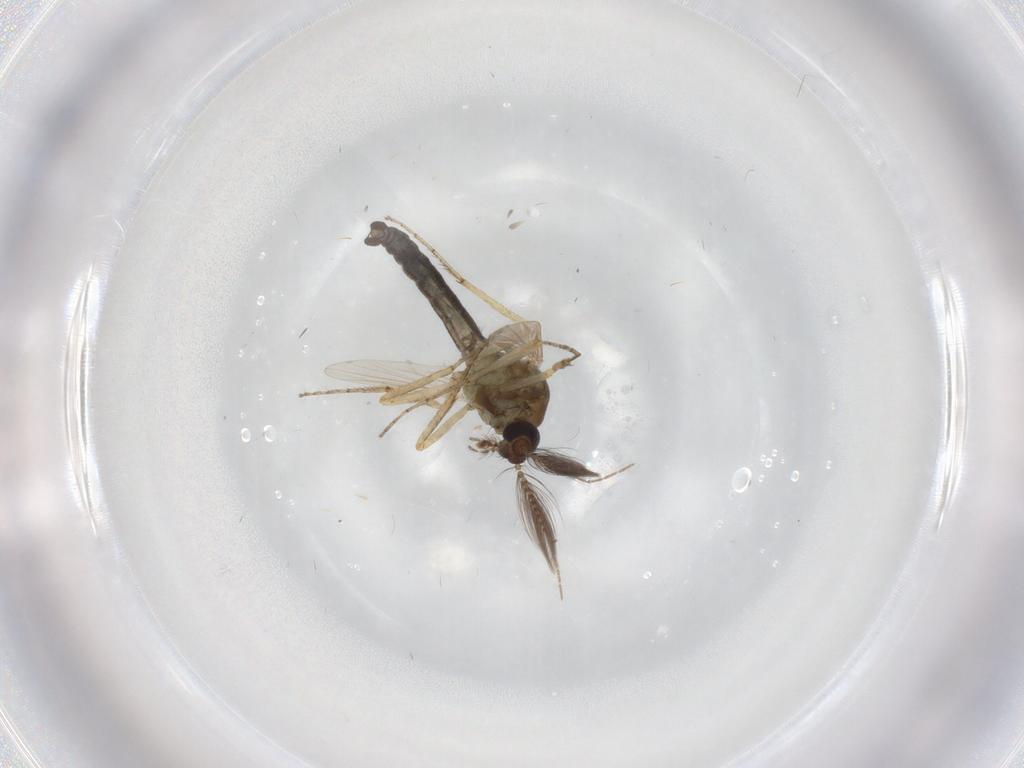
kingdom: Animalia
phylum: Arthropoda
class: Insecta
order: Diptera
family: Ceratopogonidae
